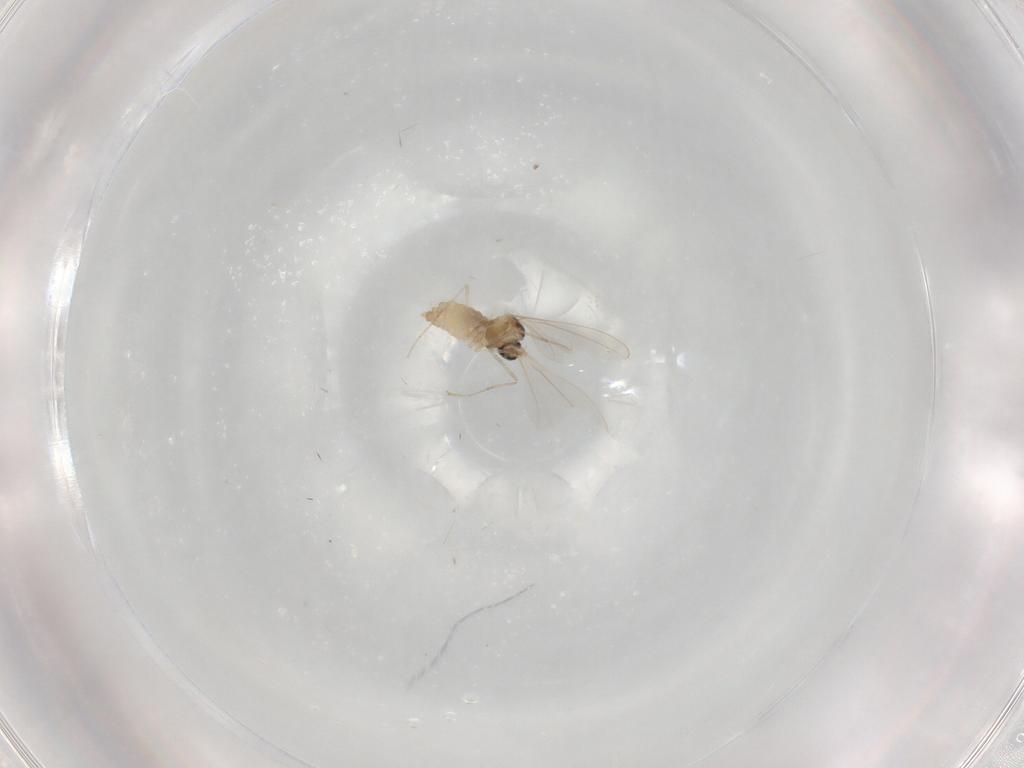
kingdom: Animalia
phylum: Arthropoda
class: Insecta
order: Diptera
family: Cecidomyiidae
